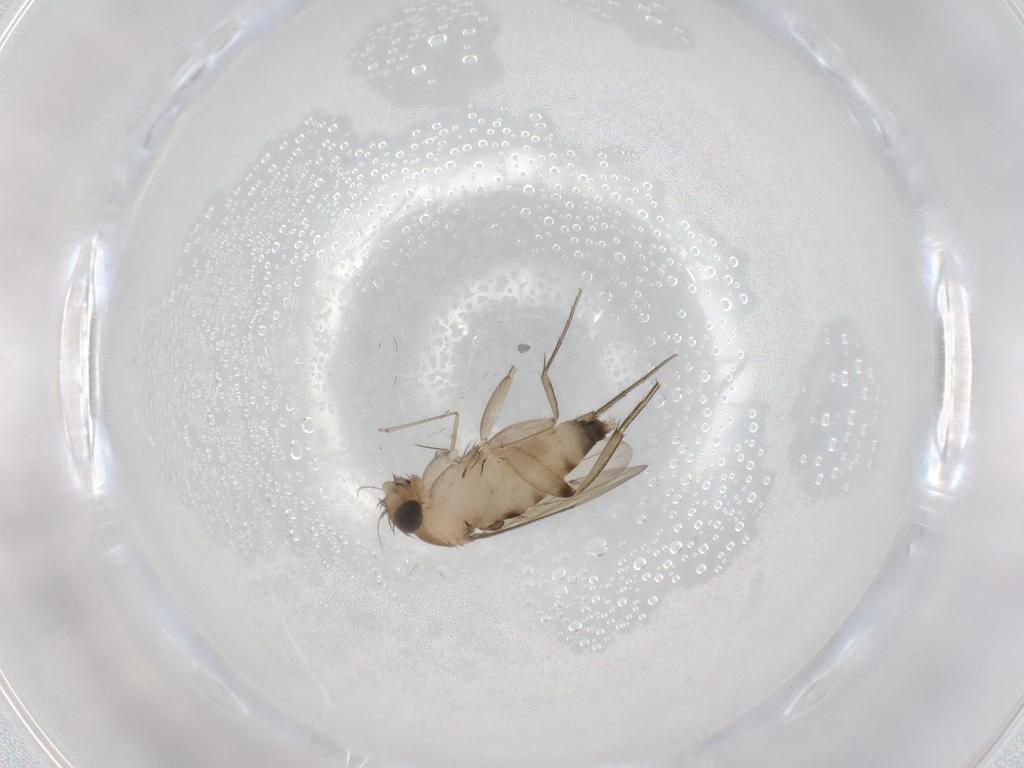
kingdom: Animalia
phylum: Arthropoda
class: Insecta
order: Diptera
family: Phoridae
